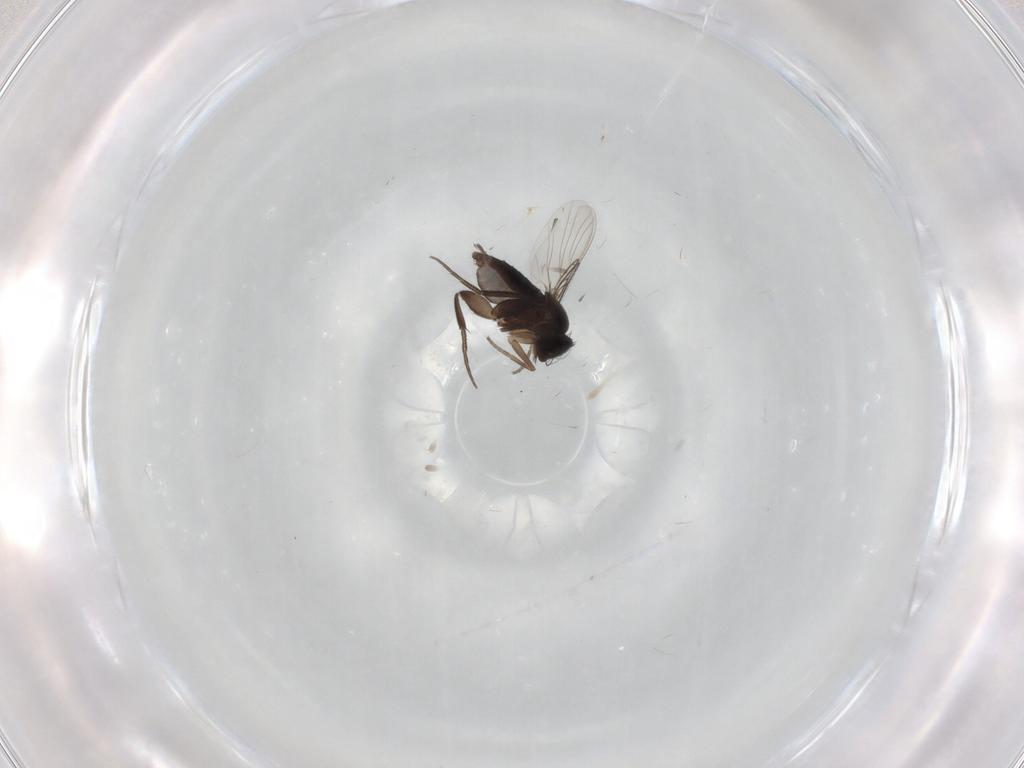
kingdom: Animalia
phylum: Arthropoda
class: Insecta
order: Diptera
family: Phoridae
